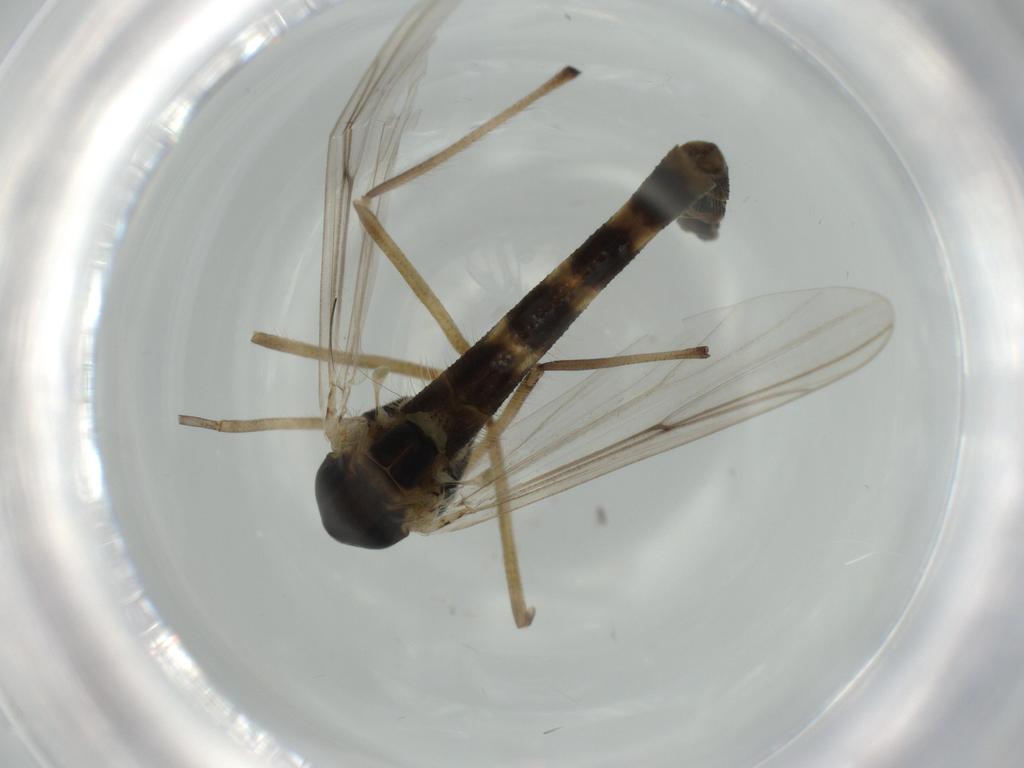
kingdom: Animalia
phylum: Arthropoda
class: Insecta
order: Diptera
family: Chironomidae
